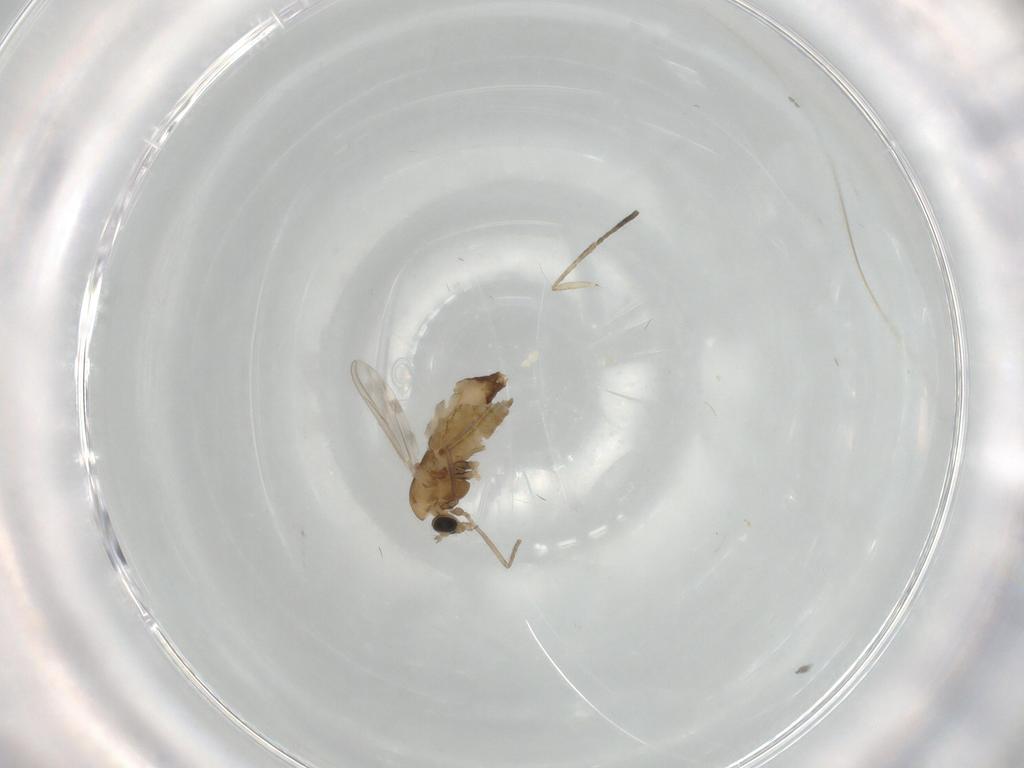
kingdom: Animalia
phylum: Arthropoda
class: Insecta
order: Diptera
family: Chironomidae
